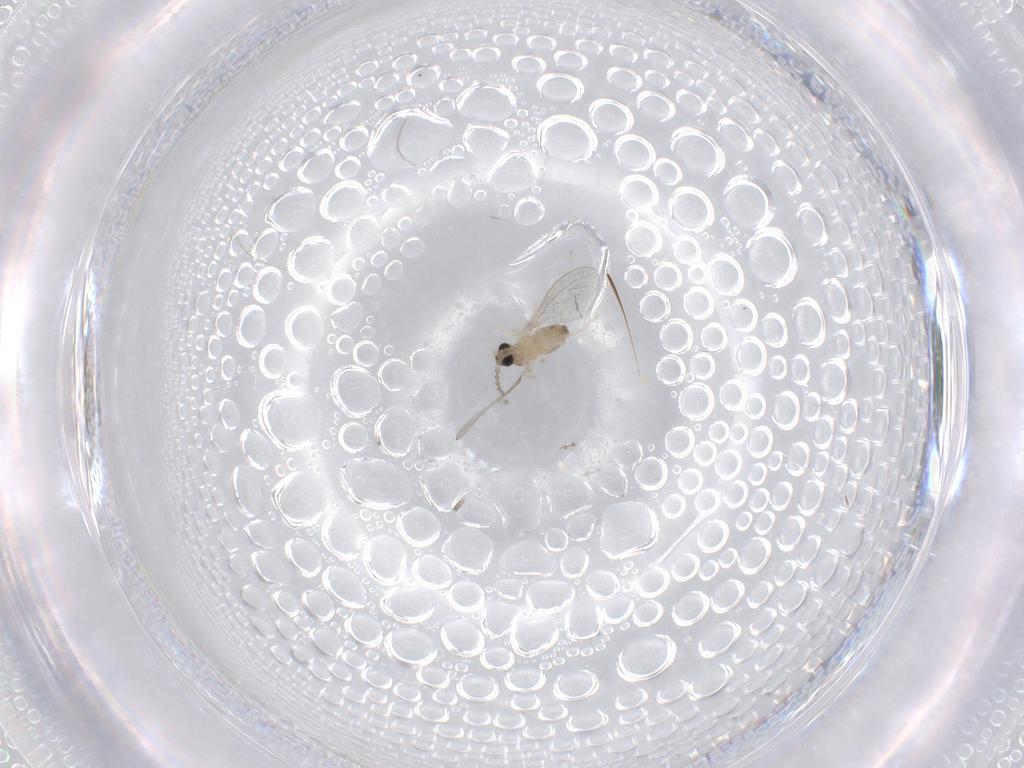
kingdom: Animalia
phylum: Arthropoda
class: Insecta
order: Diptera
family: Cecidomyiidae
